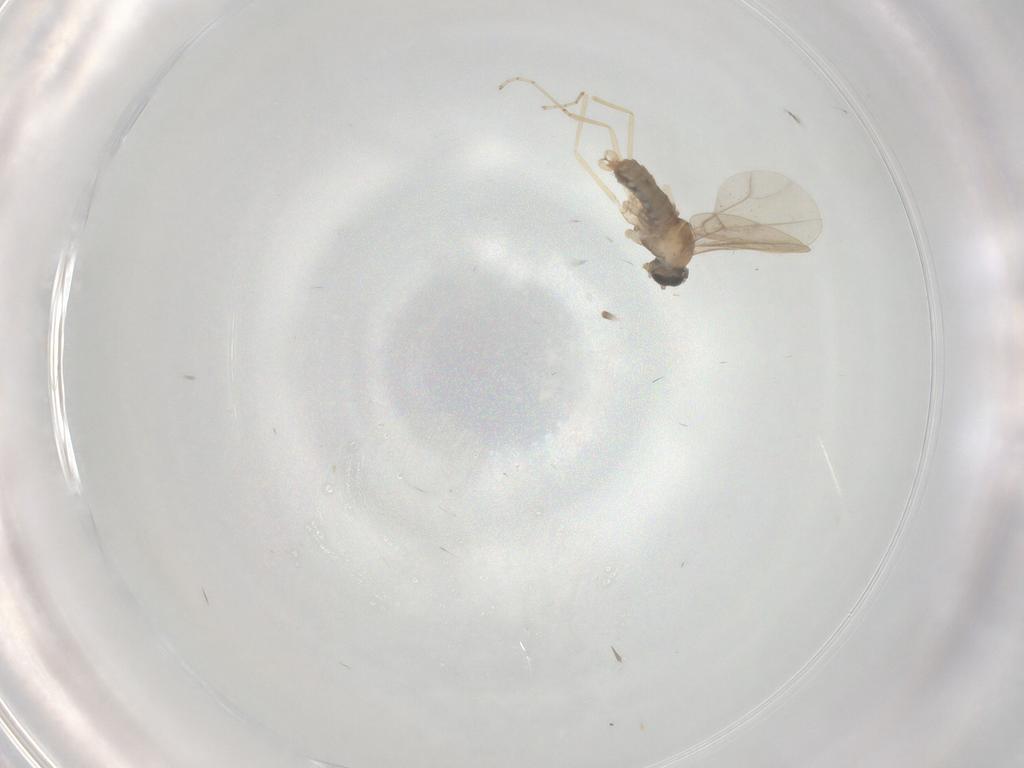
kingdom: Animalia
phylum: Arthropoda
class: Insecta
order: Diptera
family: Cecidomyiidae
